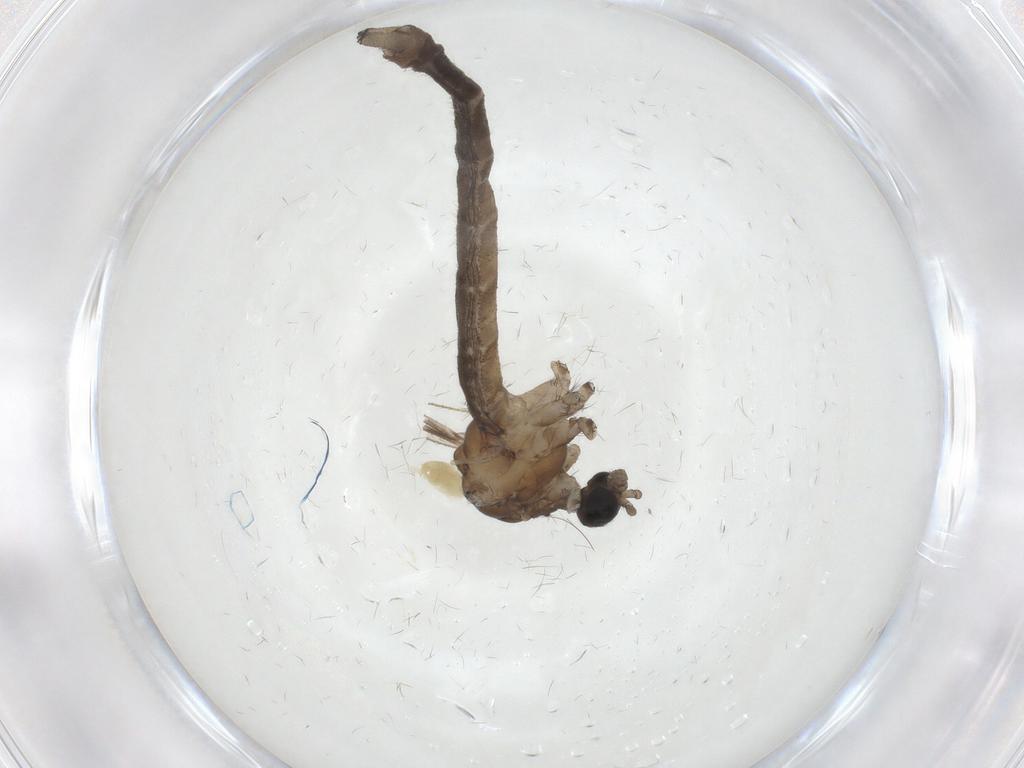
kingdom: Animalia
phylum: Arthropoda
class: Insecta
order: Diptera
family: Limoniidae
